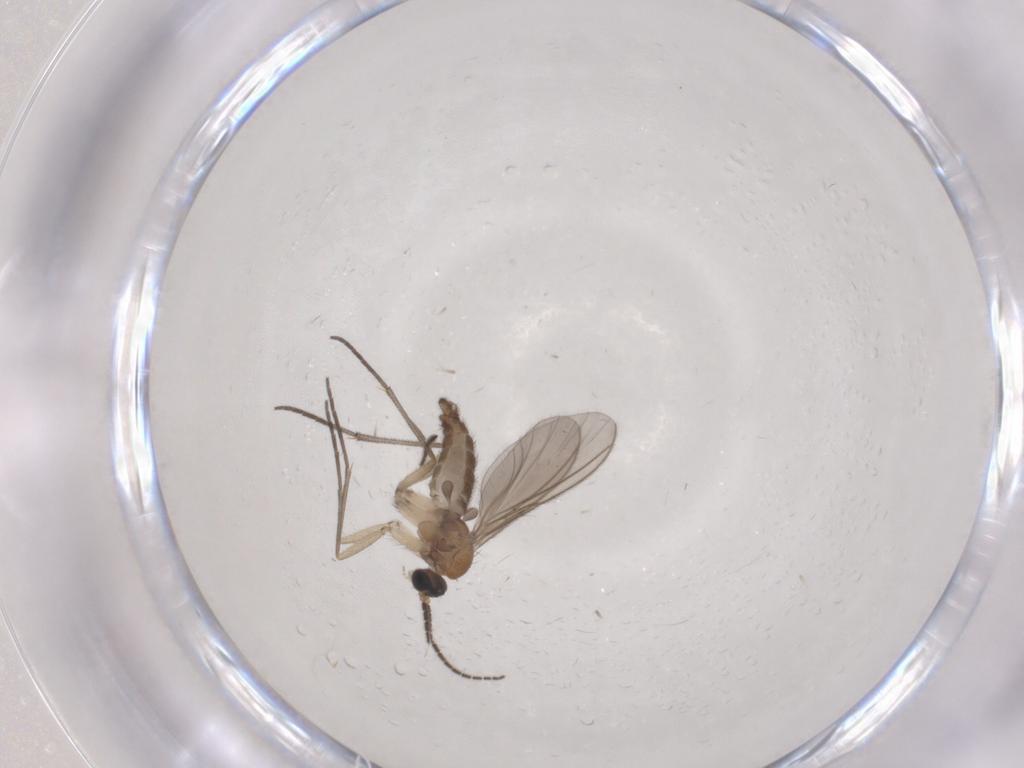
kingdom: Animalia
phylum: Arthropoda
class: Insecta
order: Diptera
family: Sciaridae
